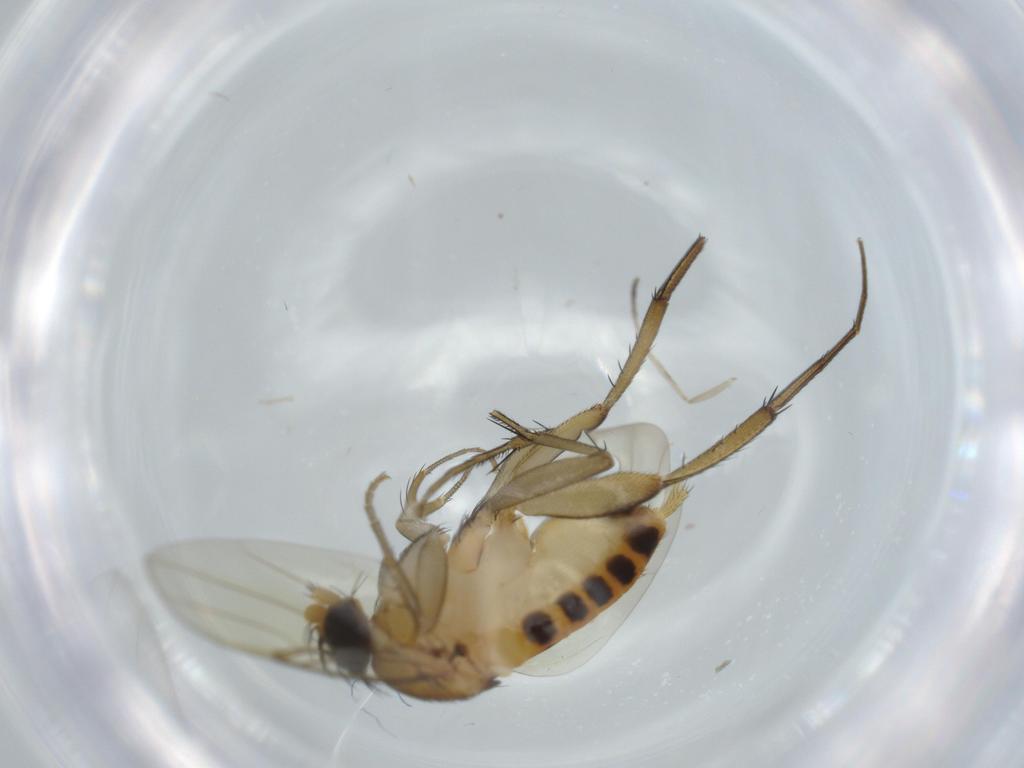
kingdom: Animalia
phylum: Arthropoda
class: Insecta
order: Diptera
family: Phoridae
